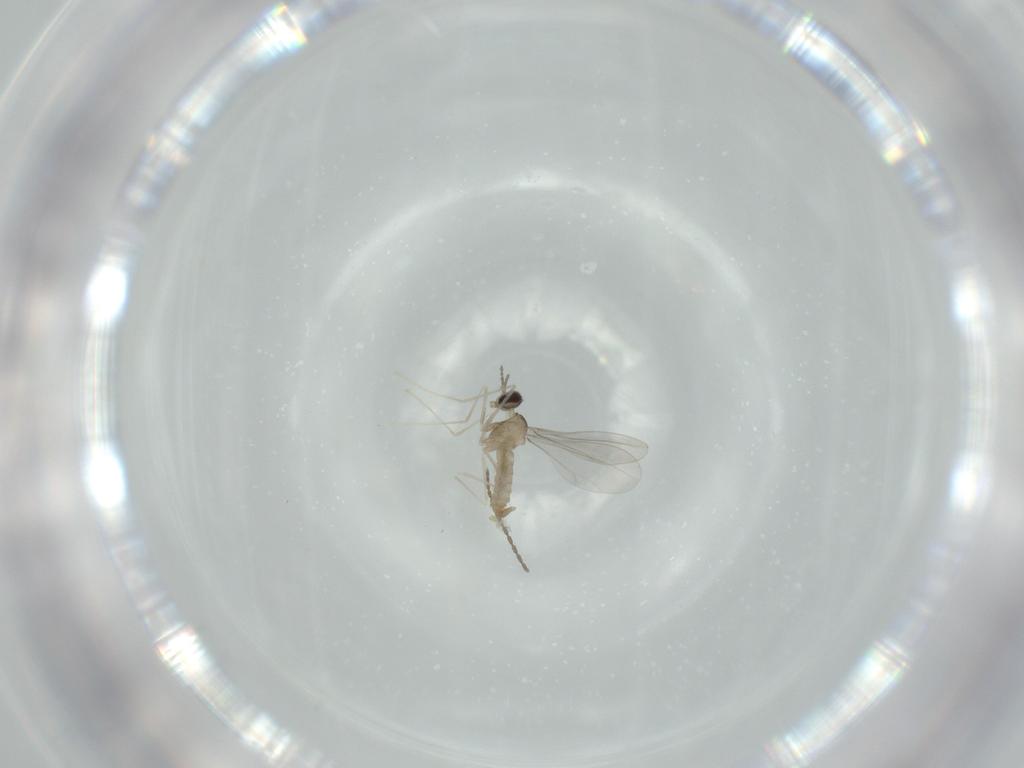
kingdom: Animalia
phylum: Arthropoda
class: Insecta
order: Diptera
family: Cecidomyiidae
